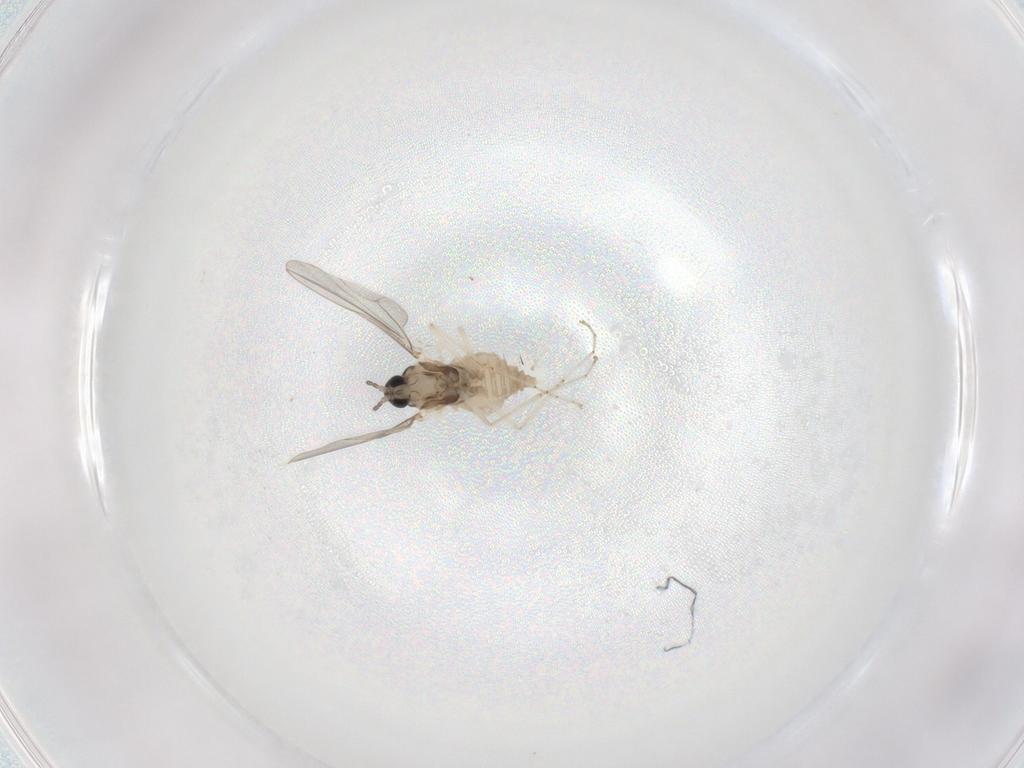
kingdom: Animalia
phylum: Arthropoda
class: Insecta
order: Diptera
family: Cecidomyiidae
